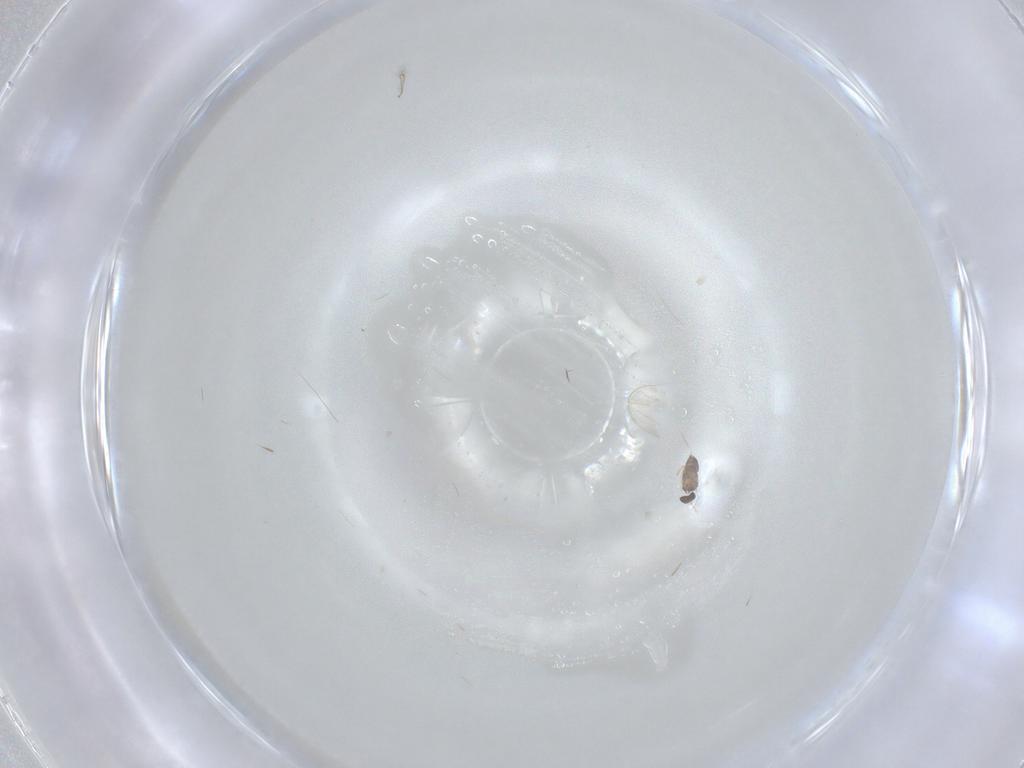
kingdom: Animalia
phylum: Arthropoda
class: Insecta
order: Hymenoptera
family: Mymaridae
